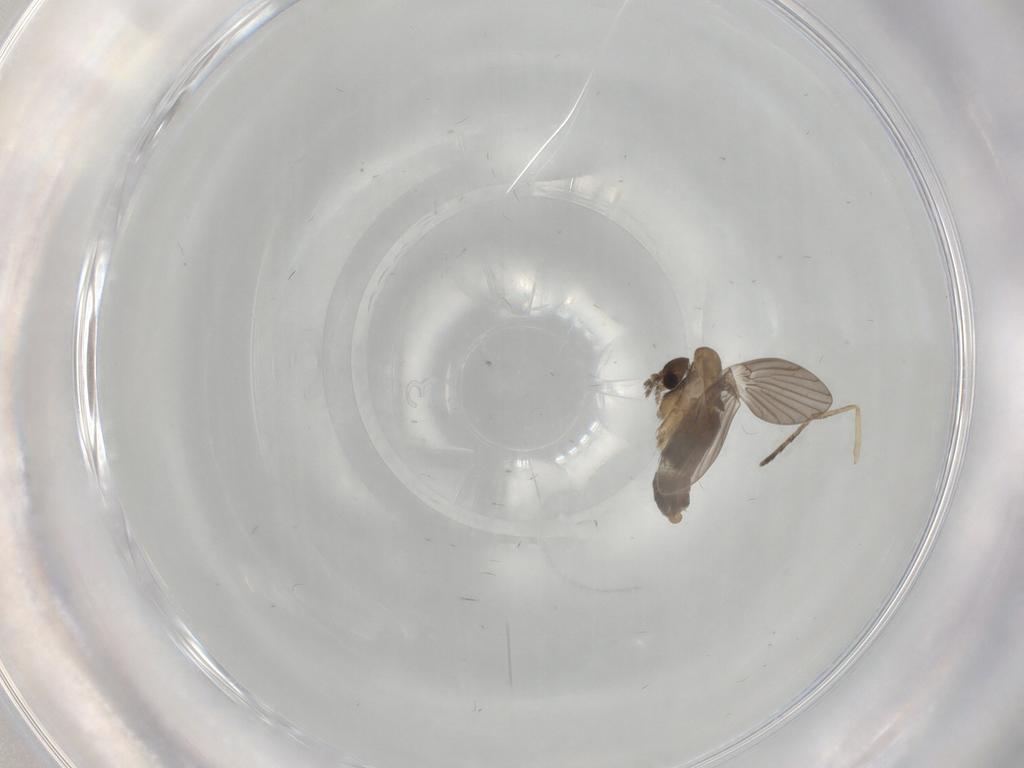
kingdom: Animalia
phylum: Arthropoda
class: Insecta
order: Diptera
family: Psychodidae
